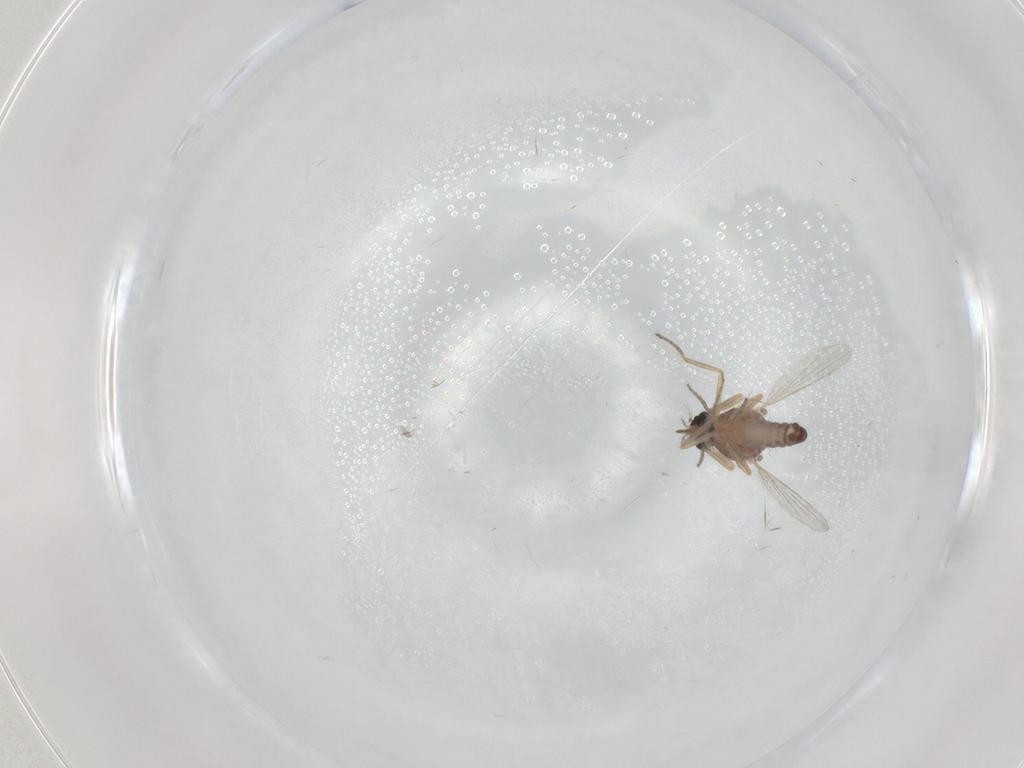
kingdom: Animalia
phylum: Arthropoda
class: Insecta
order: Diptera
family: Ceratopogonidae
